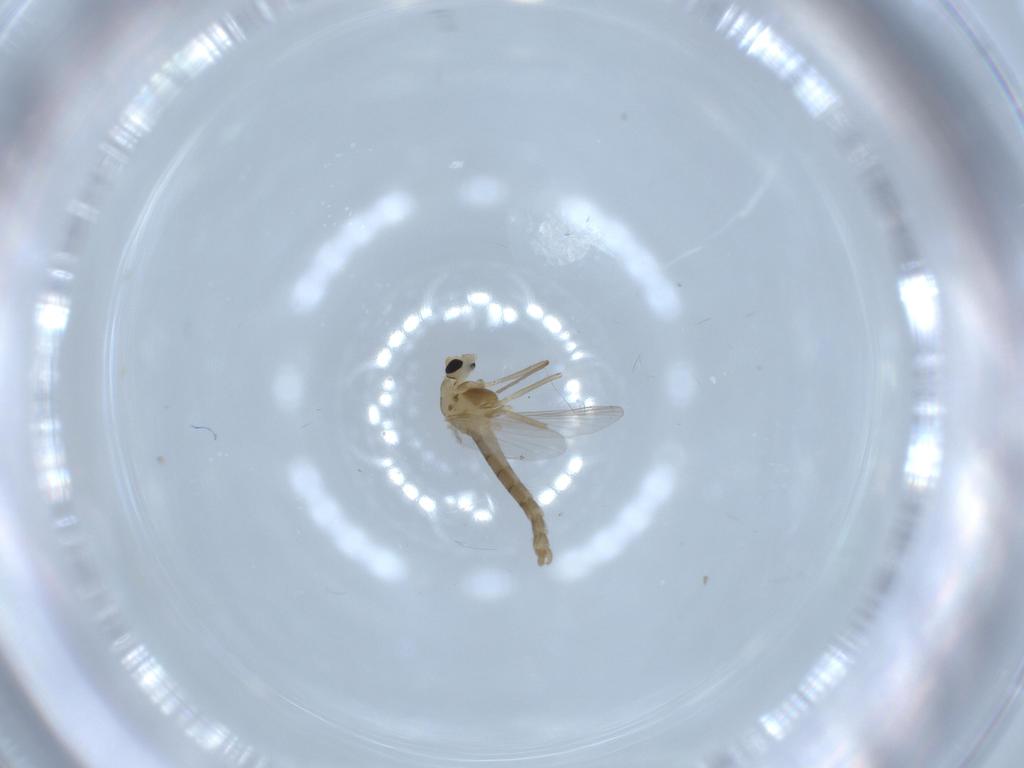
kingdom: Animalia
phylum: Arthropoda
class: Insecta
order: Diptera
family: Chironomidae
